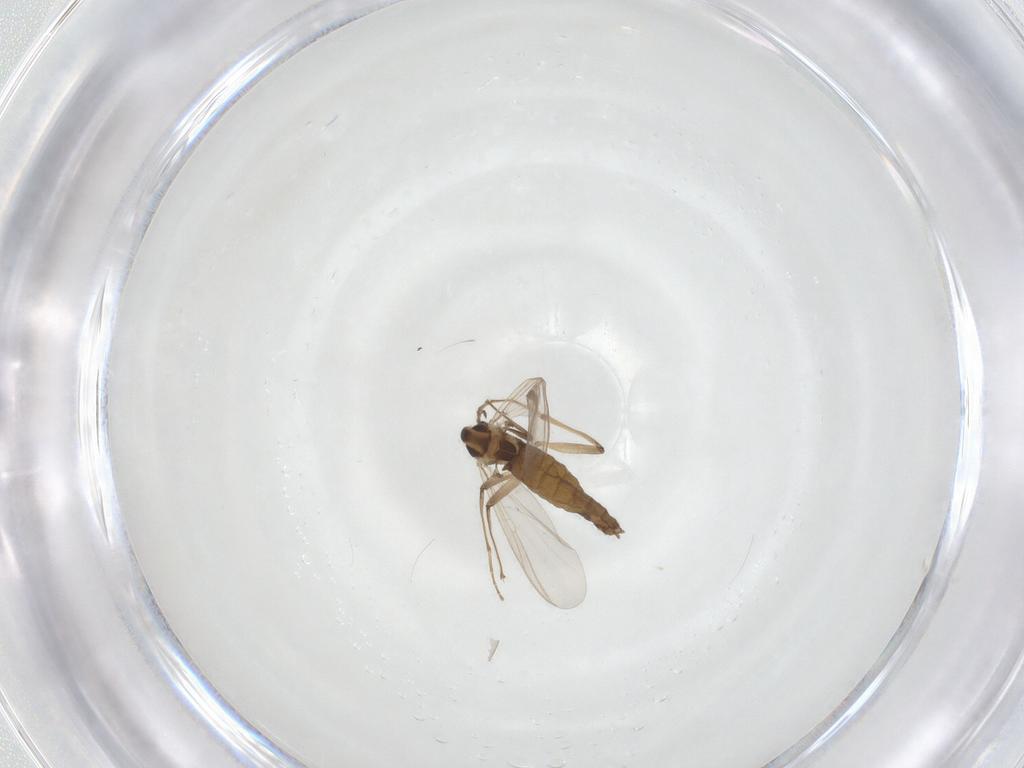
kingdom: Animalia
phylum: Arthropoda
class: Insecta
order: Diptera
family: Chironomidae
